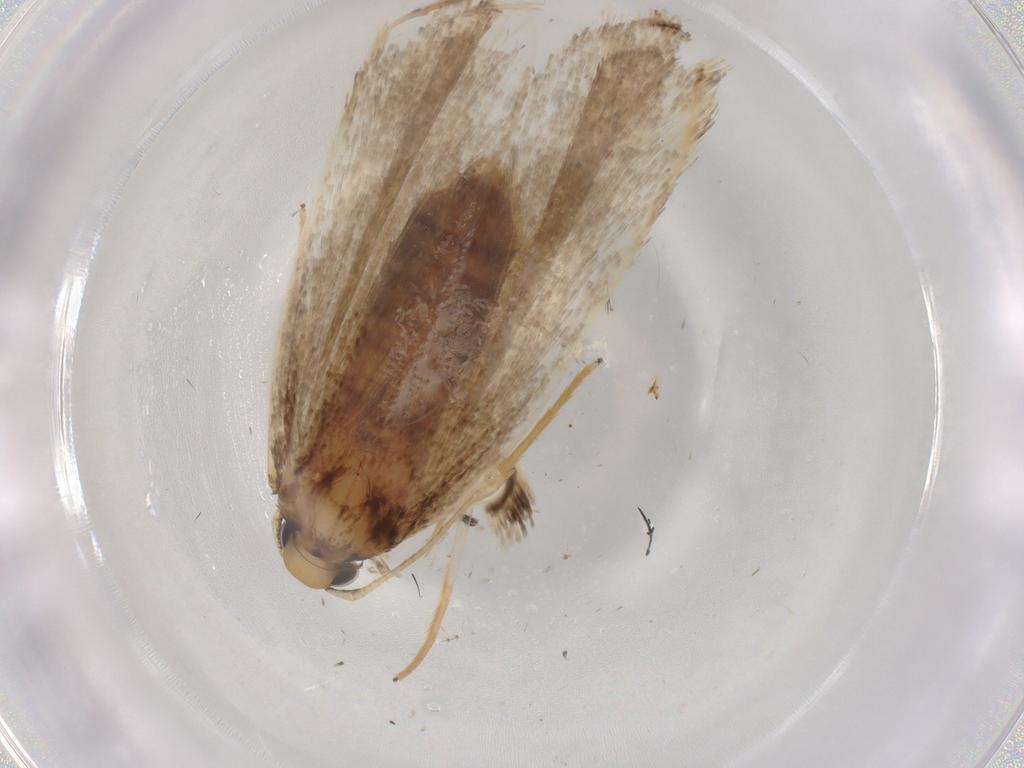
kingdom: Animalia
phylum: Arthropoda
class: Insecta
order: Lepidoptera
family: Lecithoceridae
